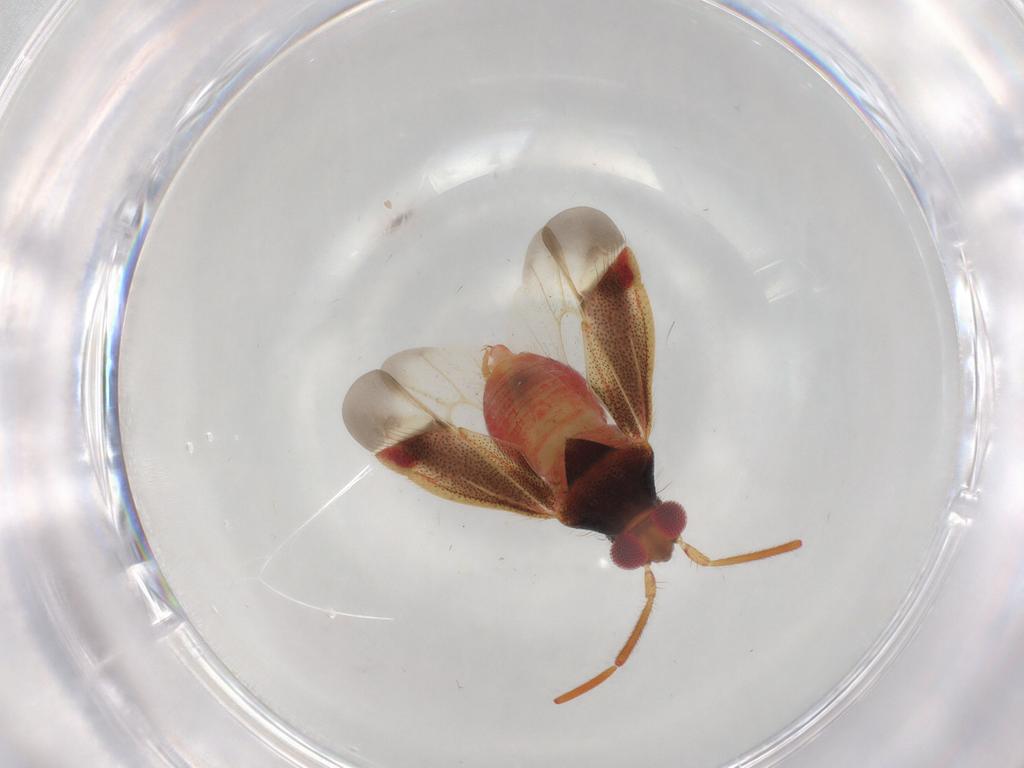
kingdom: Animalia
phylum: Arthropoda
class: Insecta
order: Hemiptera
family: Miridae
